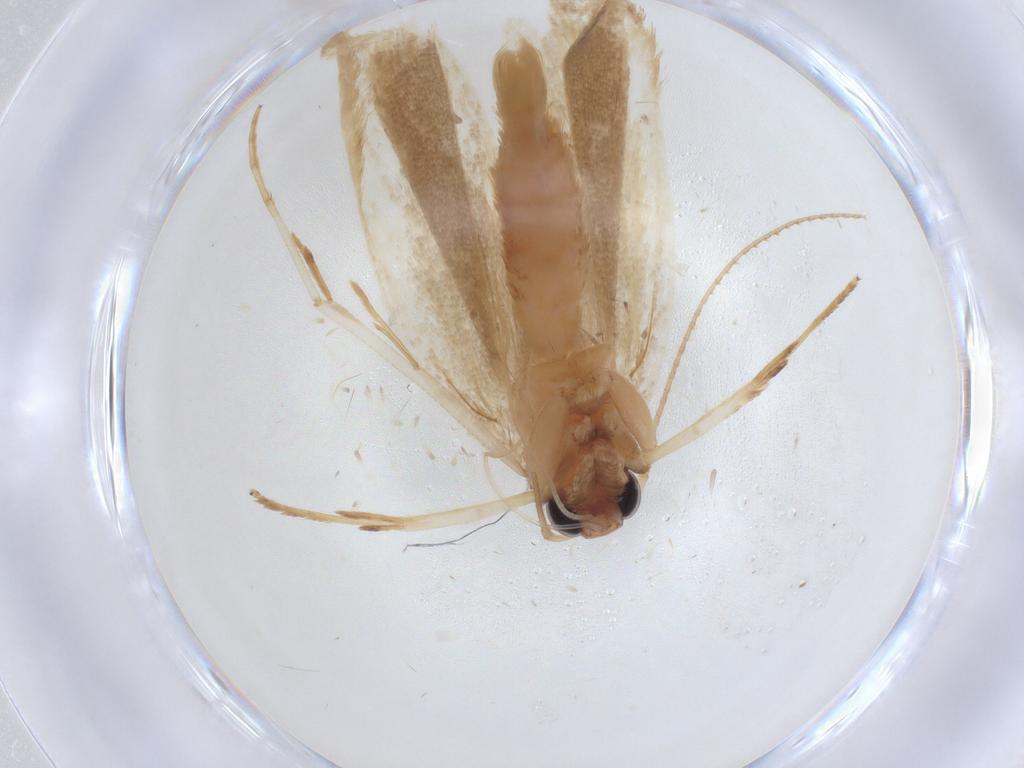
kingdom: Animalia
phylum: Arthropoda
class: Insecta
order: Lepidoptera
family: Gelechiidae
